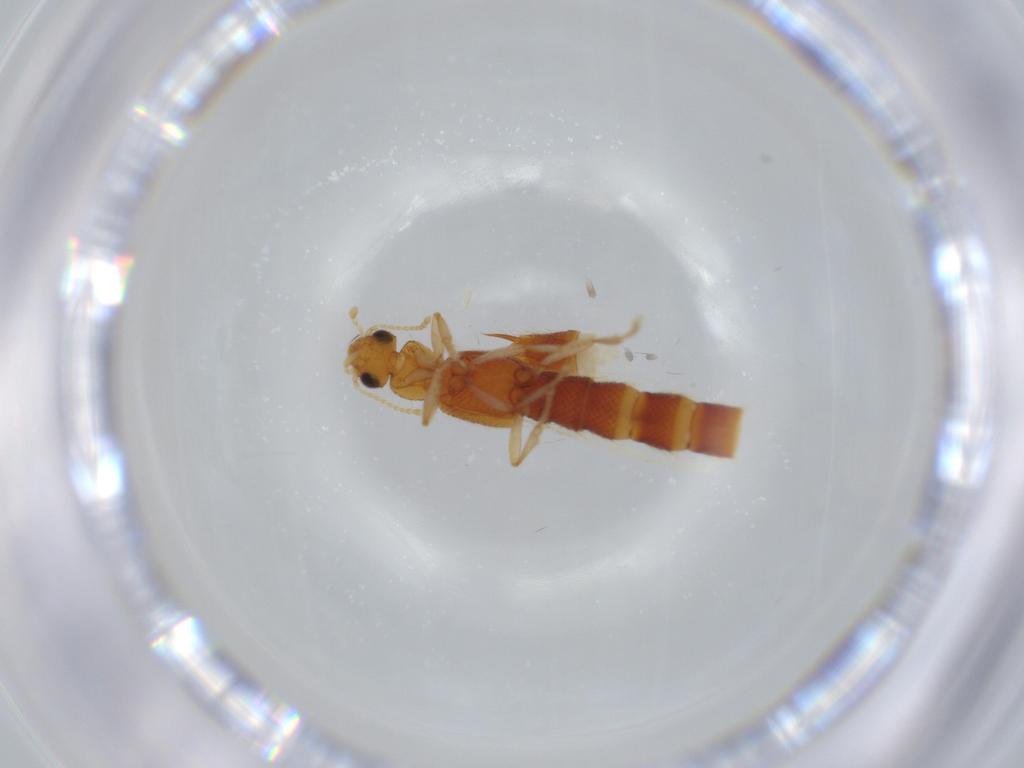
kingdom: Animalia
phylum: Arthropoda
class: Insecta
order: Coleoptera
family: Staphylinidae
